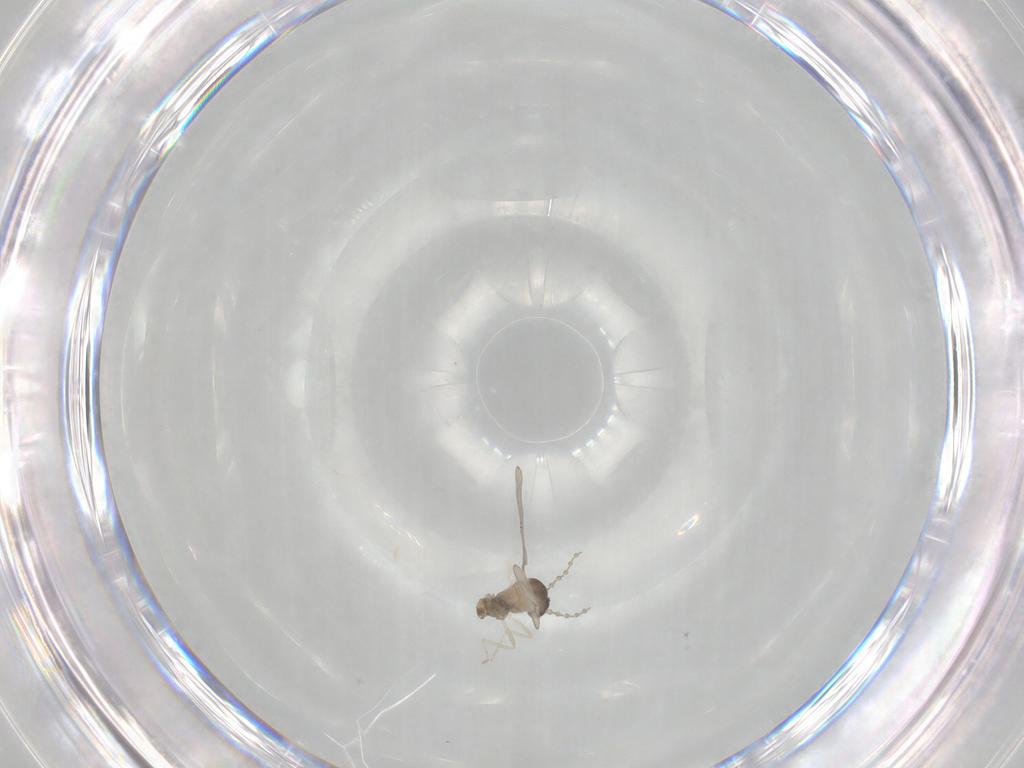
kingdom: Animalia
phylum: Arthropoda
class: Insecta
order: Diptera
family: Cecidomyiidae
